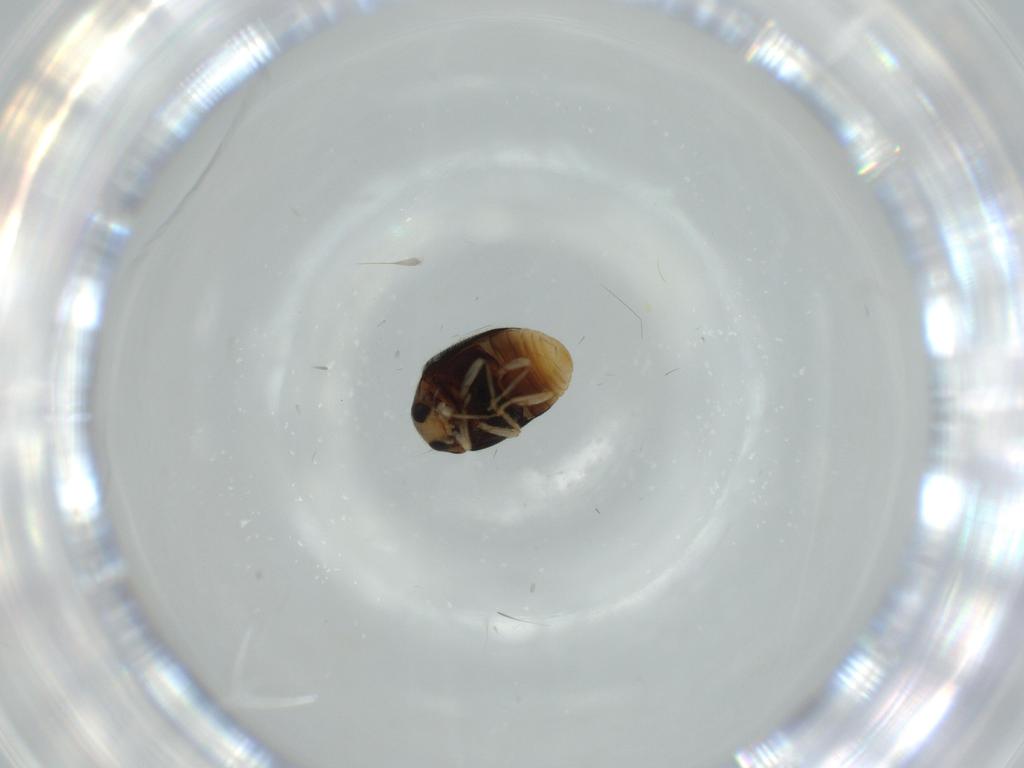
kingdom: Animalia
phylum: Arthropoda
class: Insecta
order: Coleoptera
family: Coccinellidae
